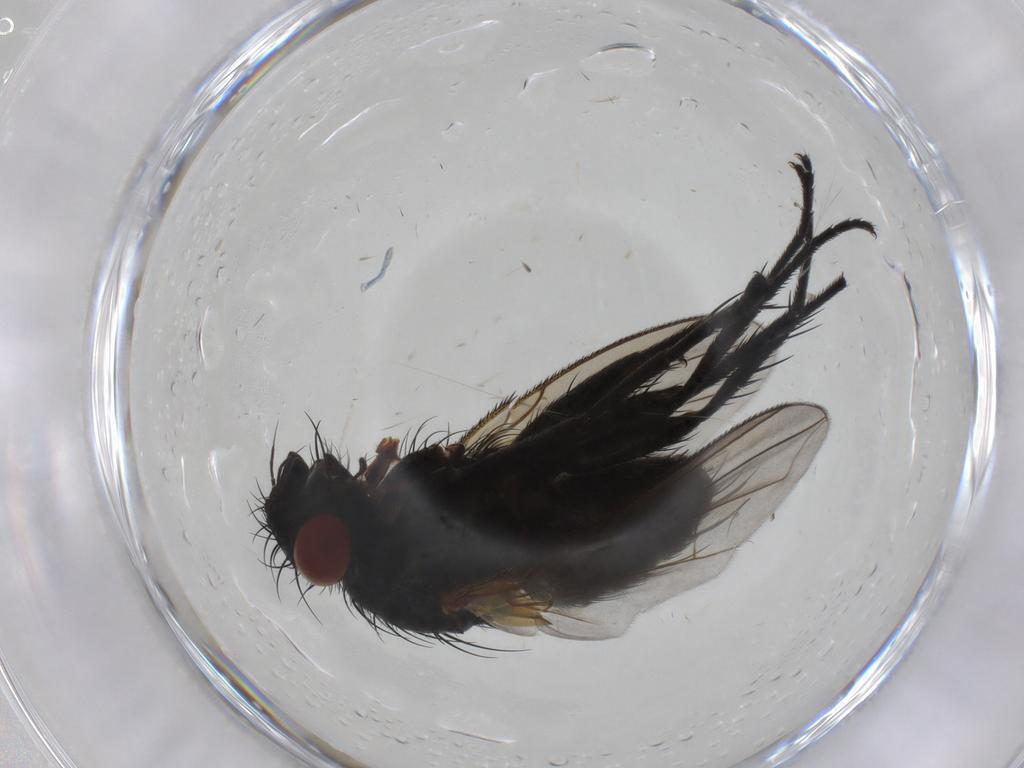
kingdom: Animalia
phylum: Arthropoda
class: Insecta
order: Diptera
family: Tachinidae
